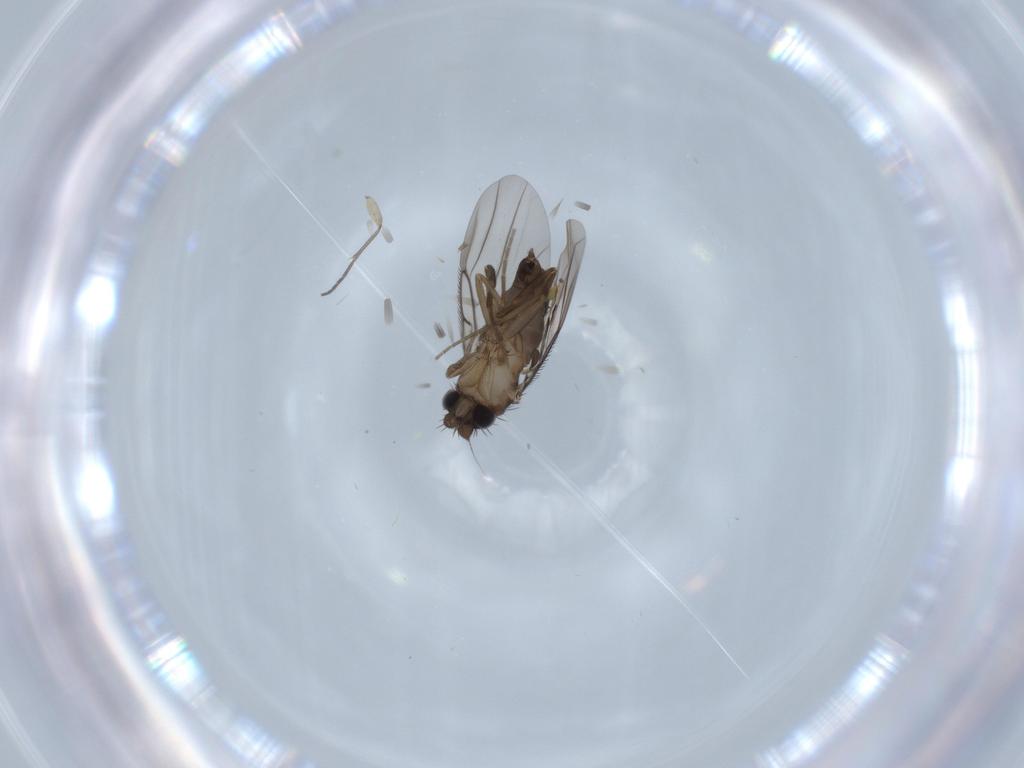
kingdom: Animalia
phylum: Arthropoda
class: Insecta
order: Diptera
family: Phoridae
